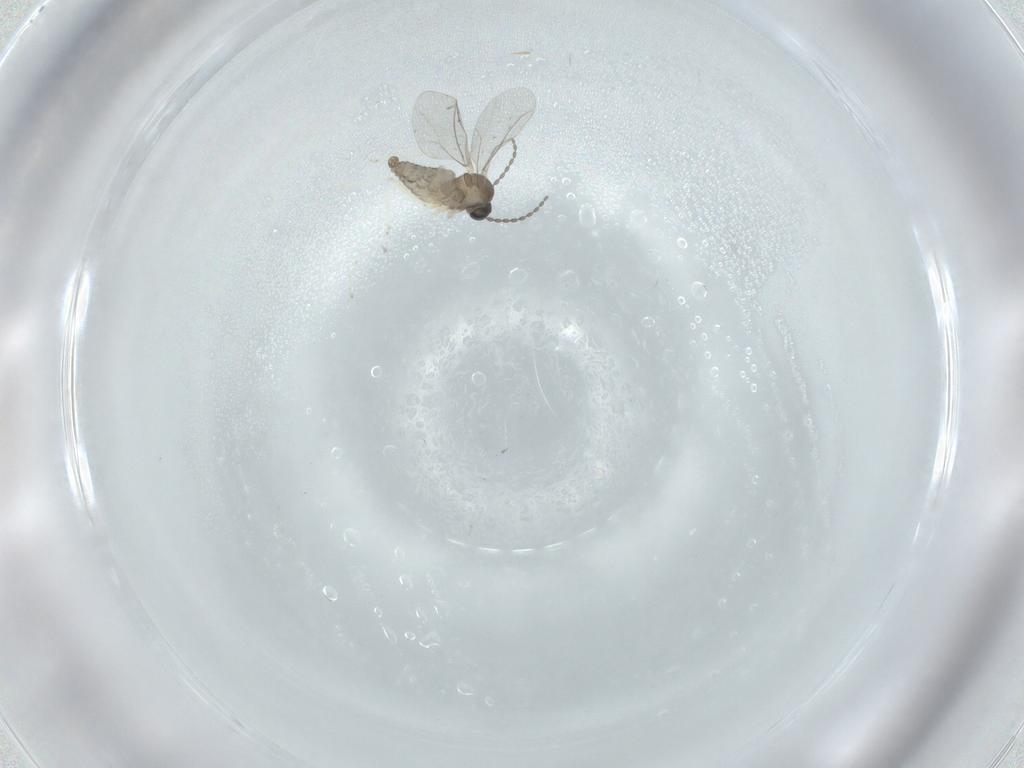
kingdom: Animalia
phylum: Arthropoda
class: Insecta
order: Diptera
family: Cecidomyiidae
